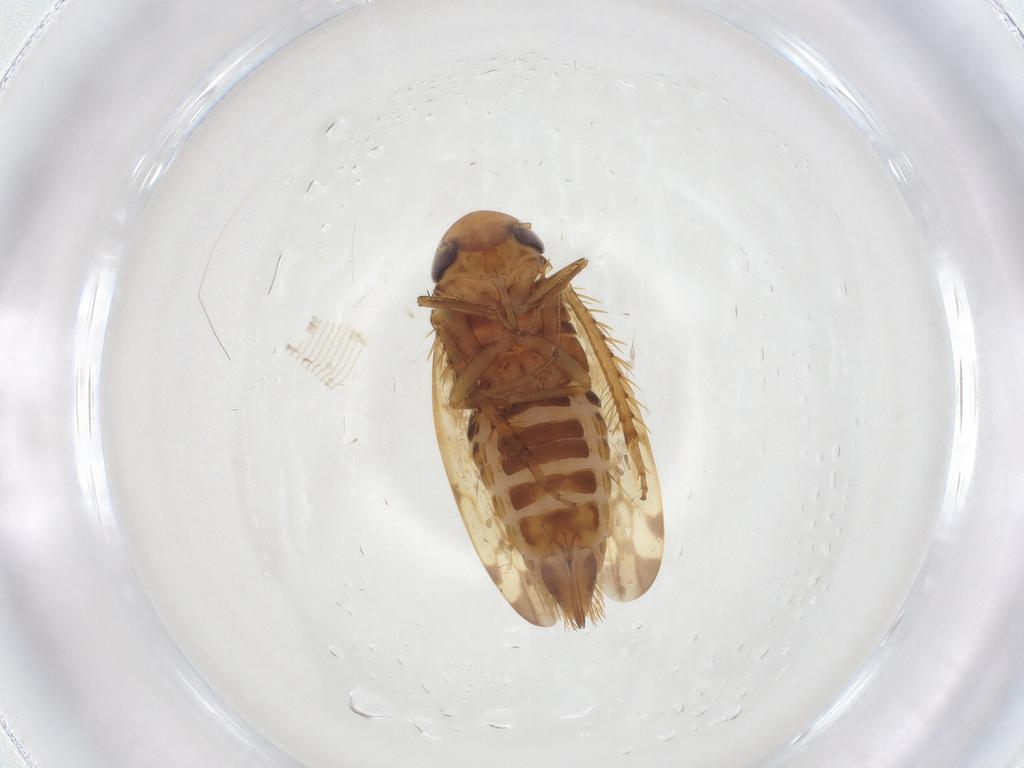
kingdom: Animalia
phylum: Arthropoda
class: Insecta
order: Hemiptera
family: Cicadellidae
